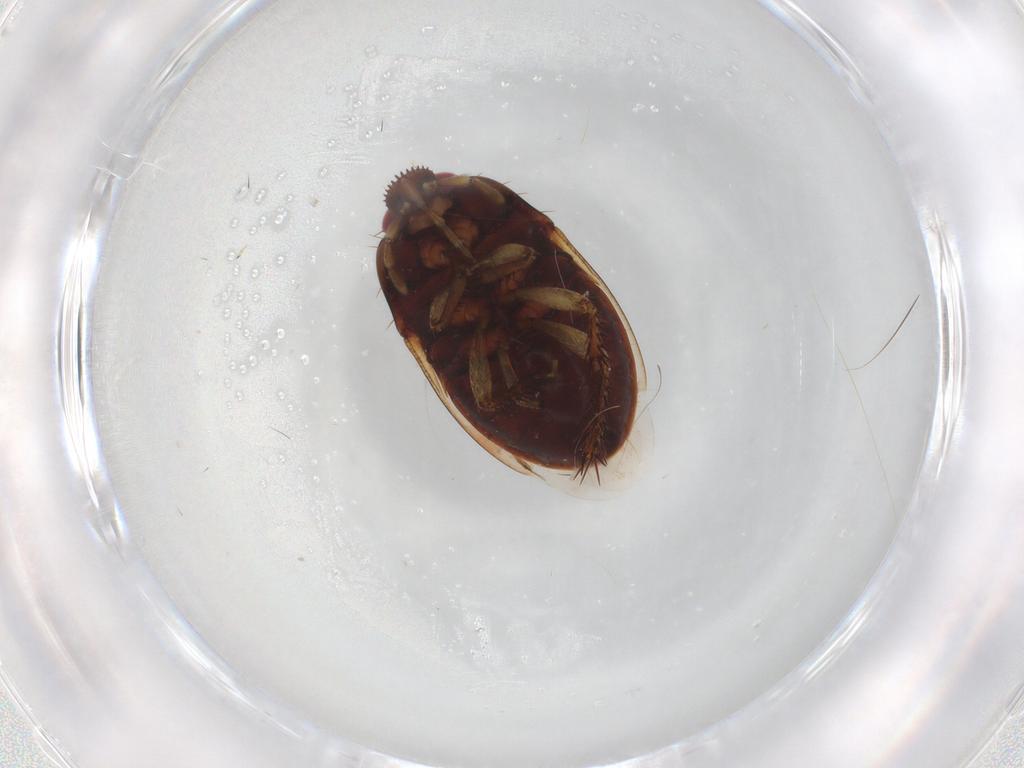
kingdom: Animalia
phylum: Arthropoda
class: Insecta
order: Hemiptera
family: Cydnidae
